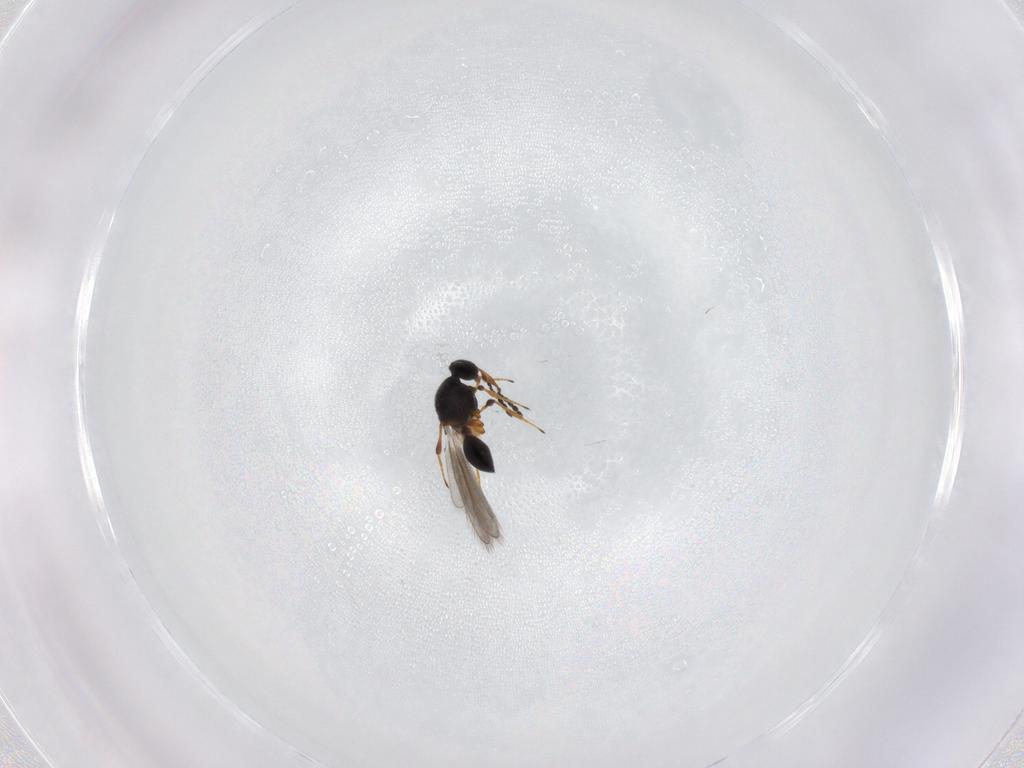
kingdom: Animalia
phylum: Arthropoda
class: Insecta
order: Hymenoptera
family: Platygastridae
